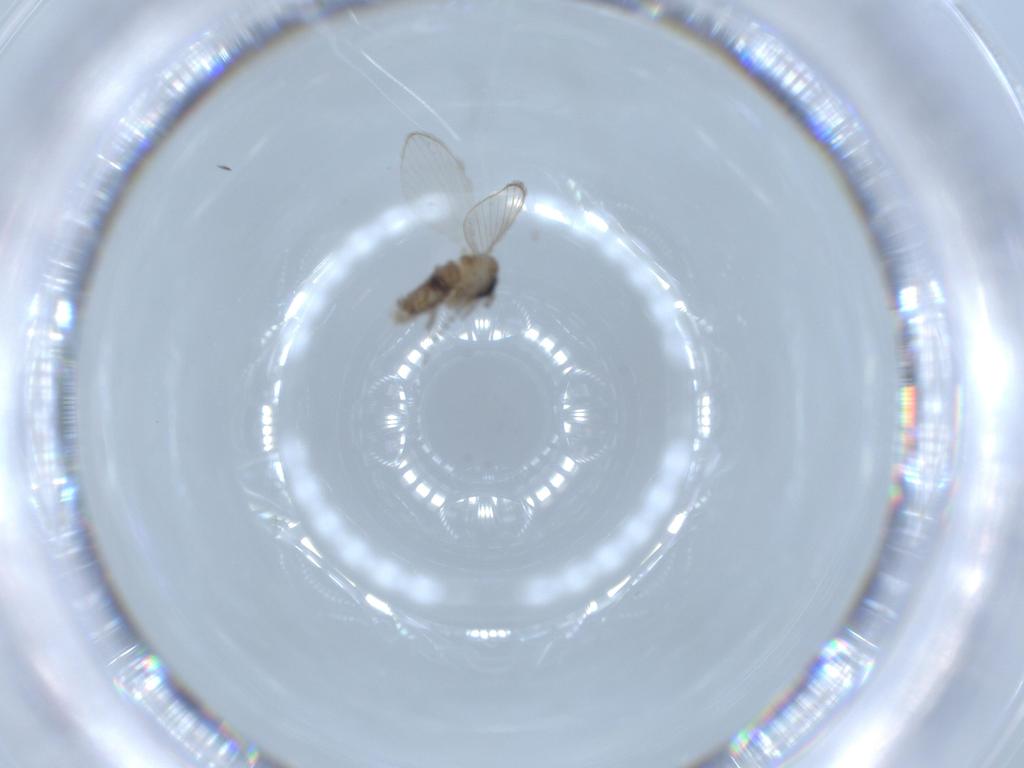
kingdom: Animalia
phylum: Arthropoda
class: Insecta
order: Diptera
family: Psychodidae
